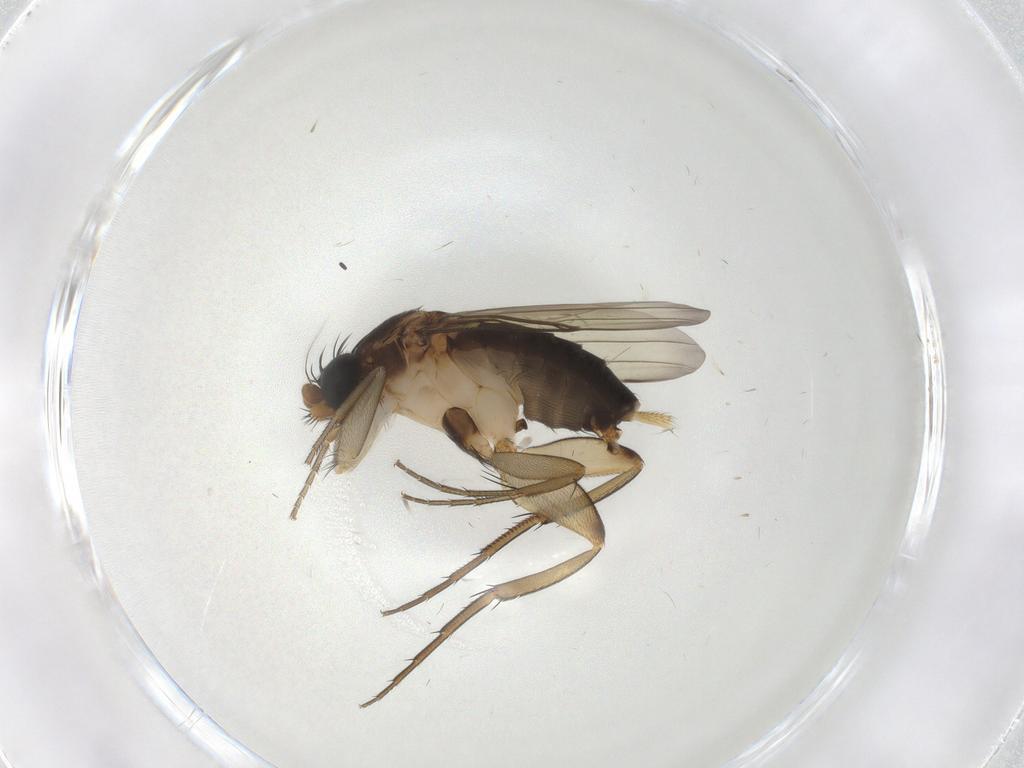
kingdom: Animalia
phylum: Arthropoda
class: Insecta
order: Diptera
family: Phoridae
